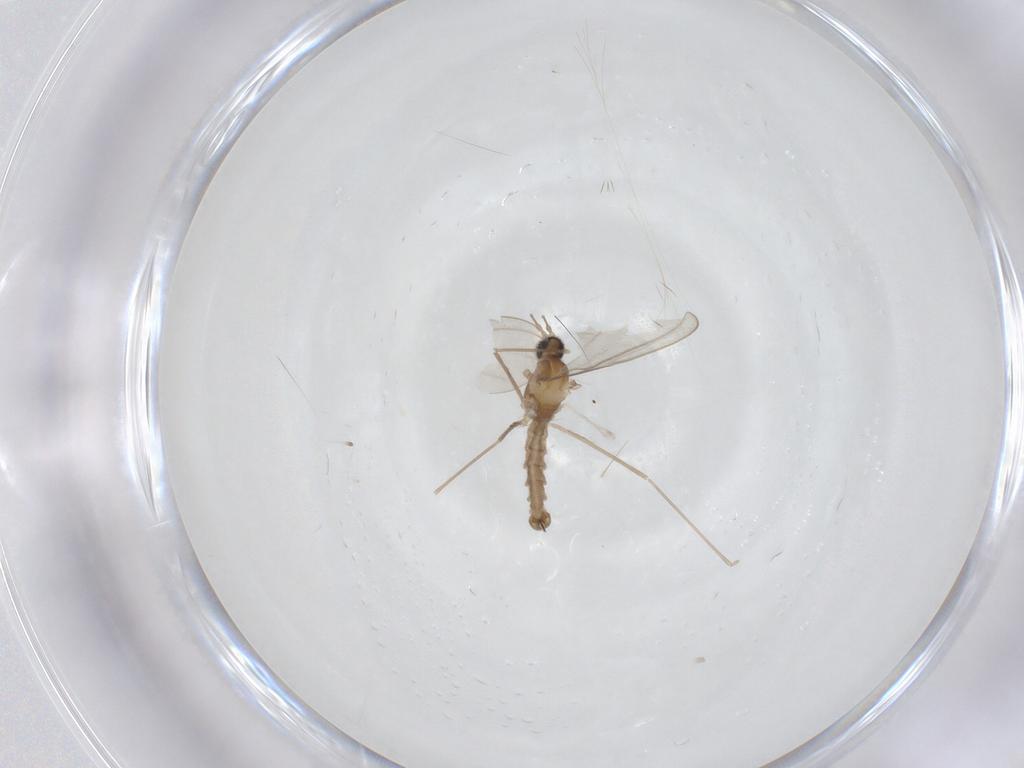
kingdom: Animalia
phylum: Arthropoda
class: Insecta
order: Diptera
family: Cecidomyiidae
